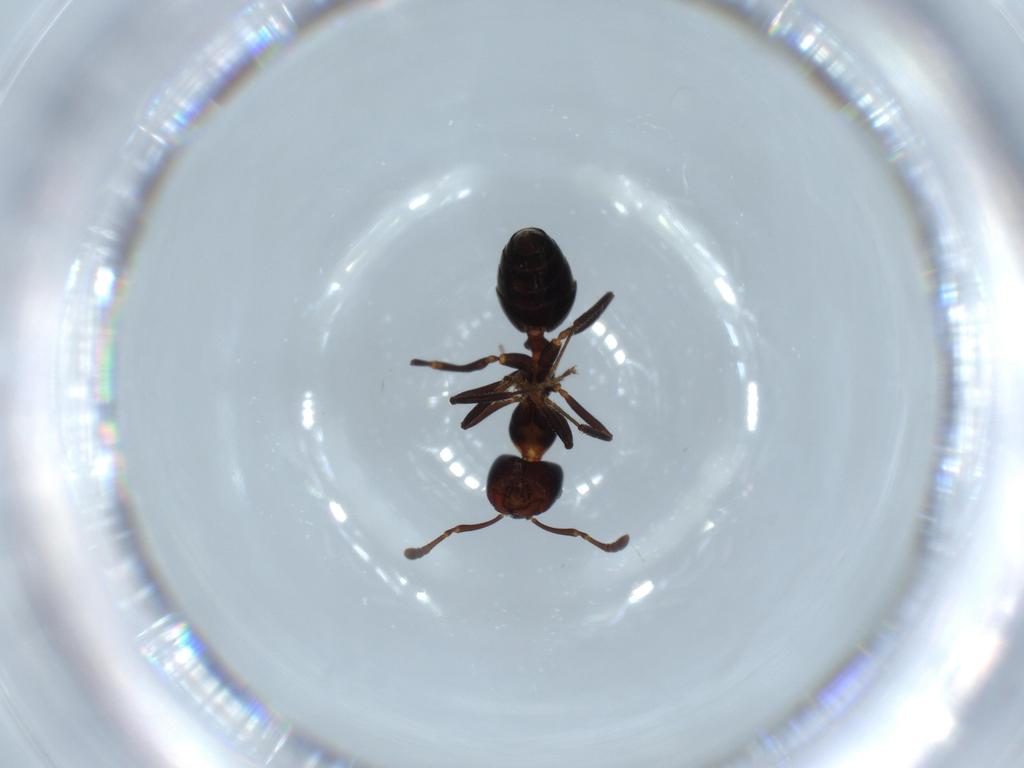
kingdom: Animalia
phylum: Arthropoda
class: Insecta
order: Hymenoptera
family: Formicidae
